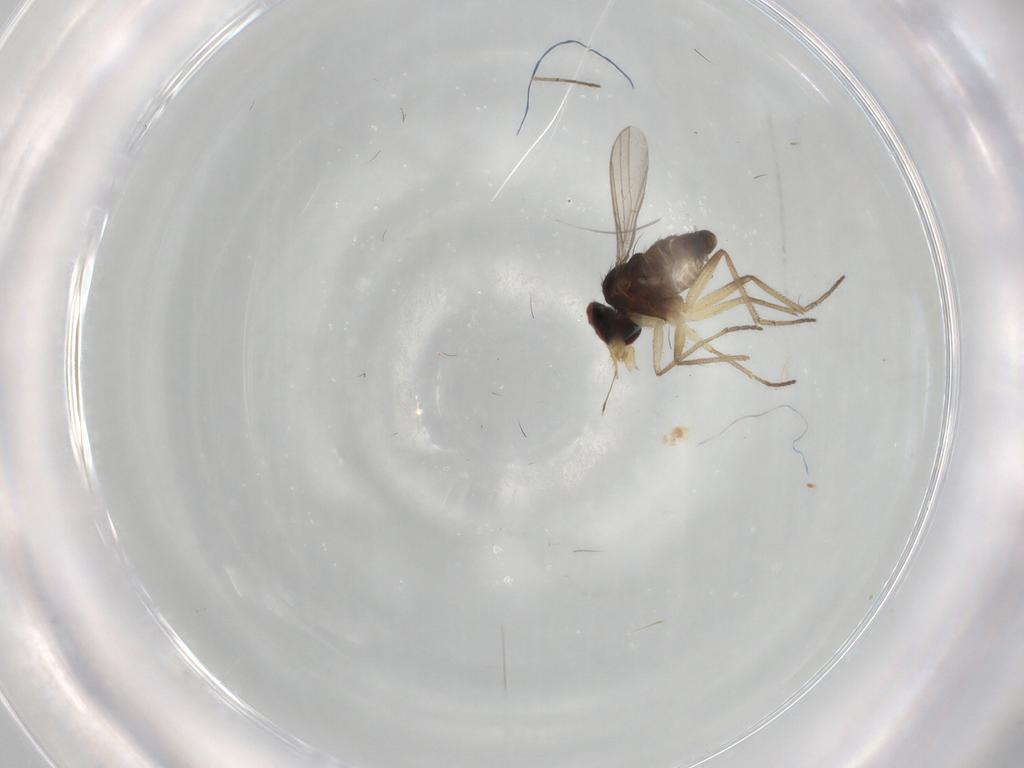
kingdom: Animalia
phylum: Arthropoda
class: Insecta
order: Diptera
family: Dolichopodidae
